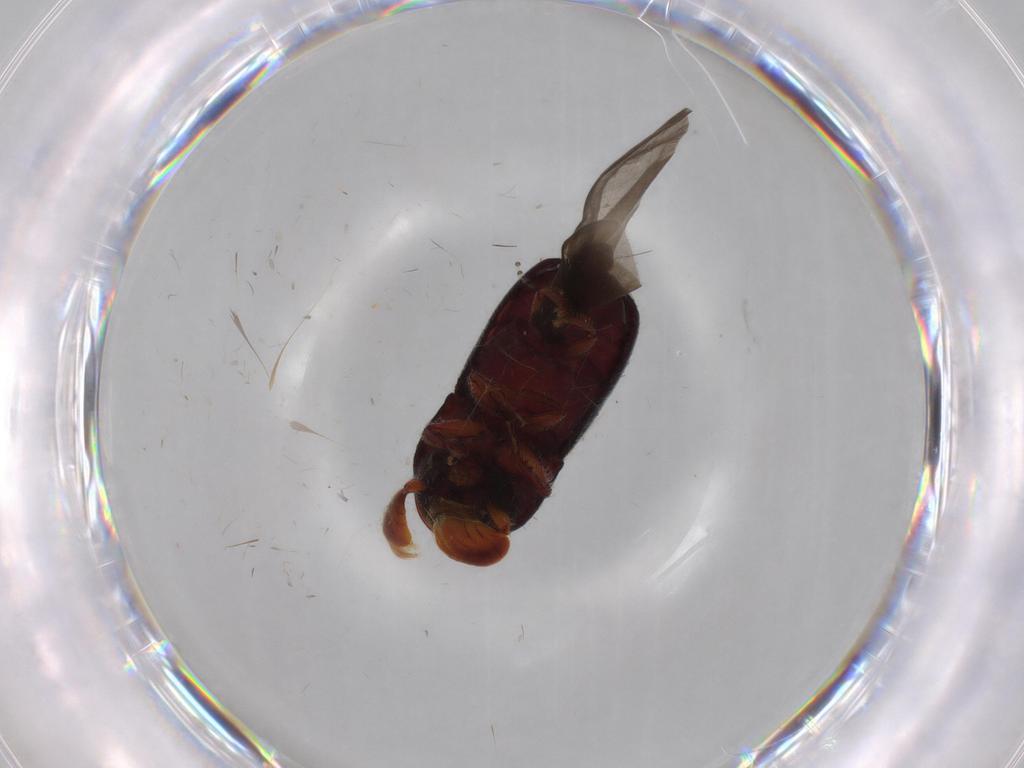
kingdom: Animalia
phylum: Arthropoda
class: Insecta
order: Coleoptera
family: Curculionidae
